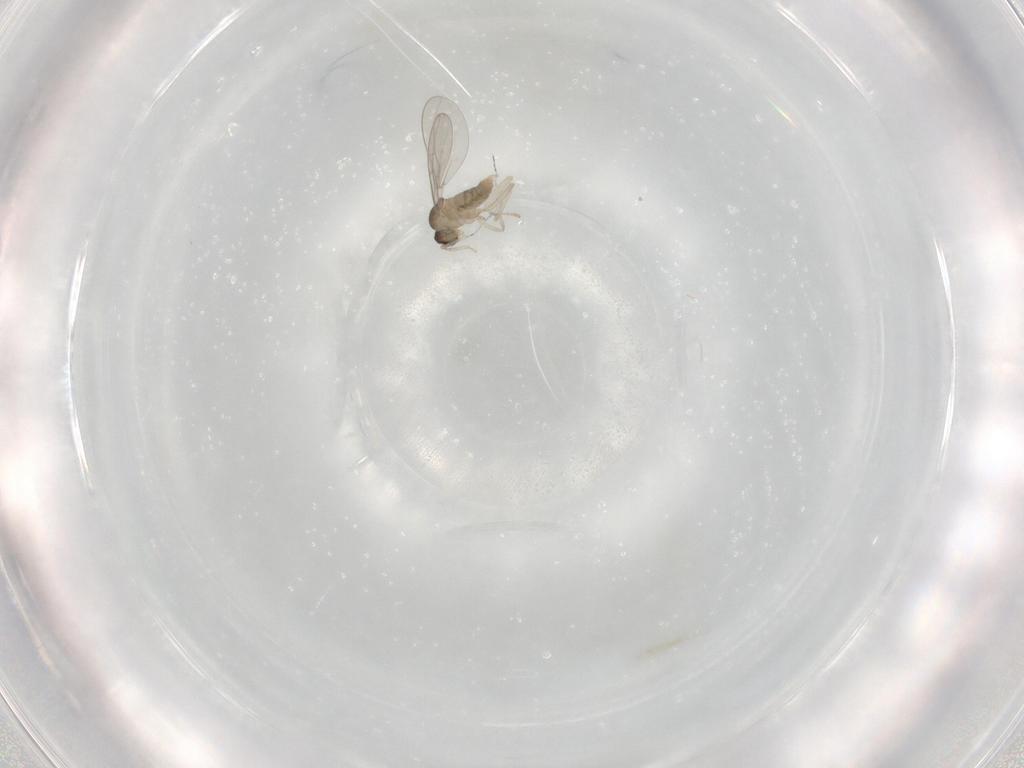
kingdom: Animalia
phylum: Arthropoda
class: Insecta
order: Diptera
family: Cecidomyiidae
